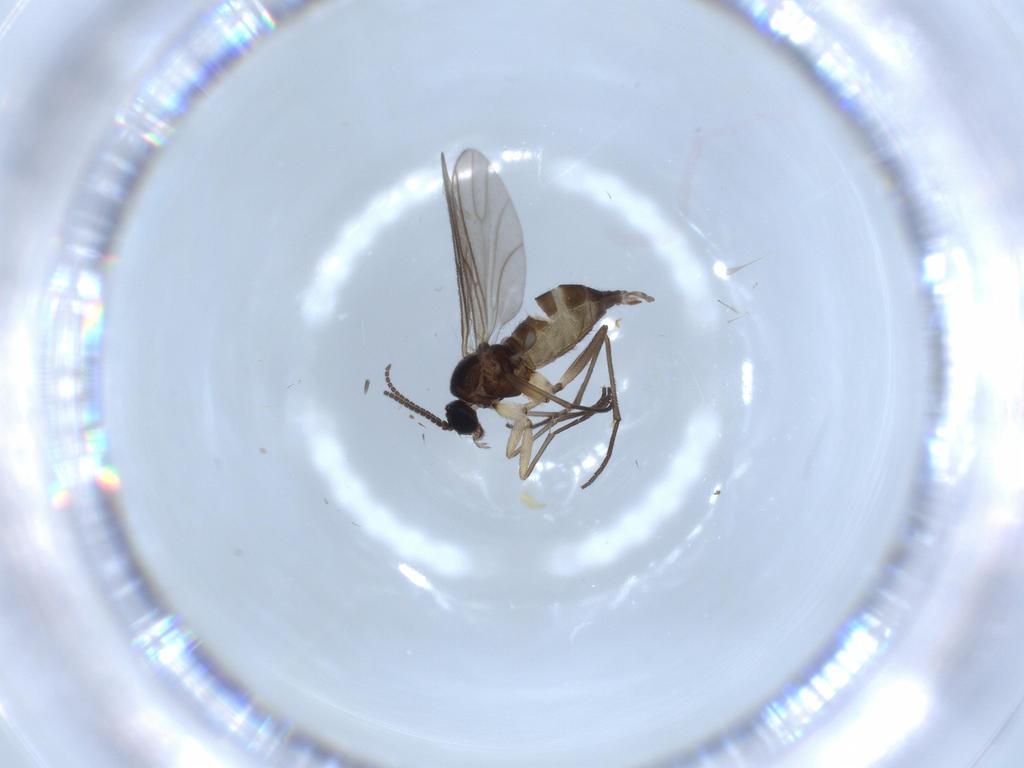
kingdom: Animalia
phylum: Arthropoda
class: Insecta
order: Diptera
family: Sciaridae
